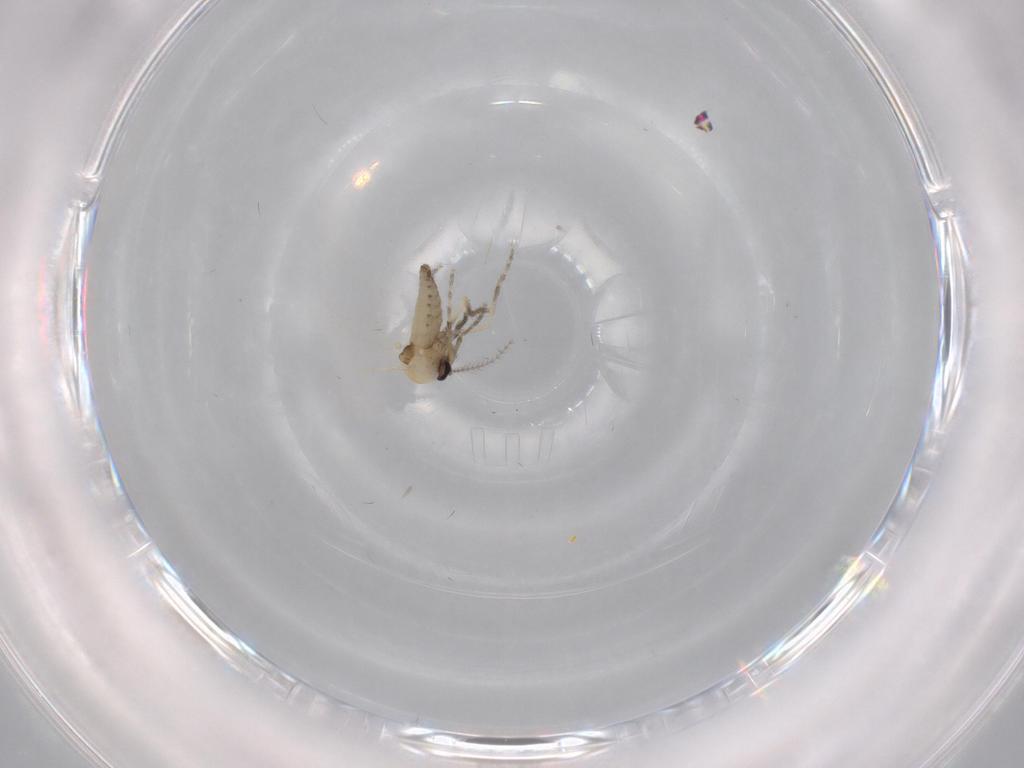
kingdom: Animalia
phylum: Arthropoda
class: Insecta
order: Diptera
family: Ceratopogonidae
